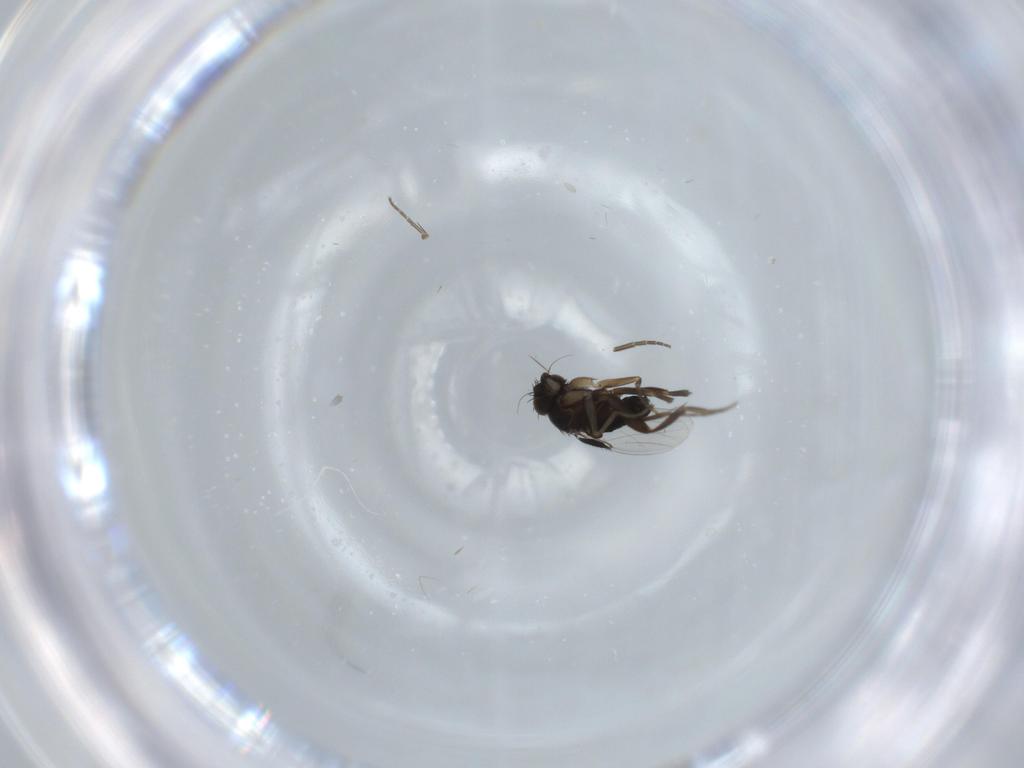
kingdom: Animalia
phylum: Arthropoda
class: Insecta
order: Diptera
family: Phoridae
